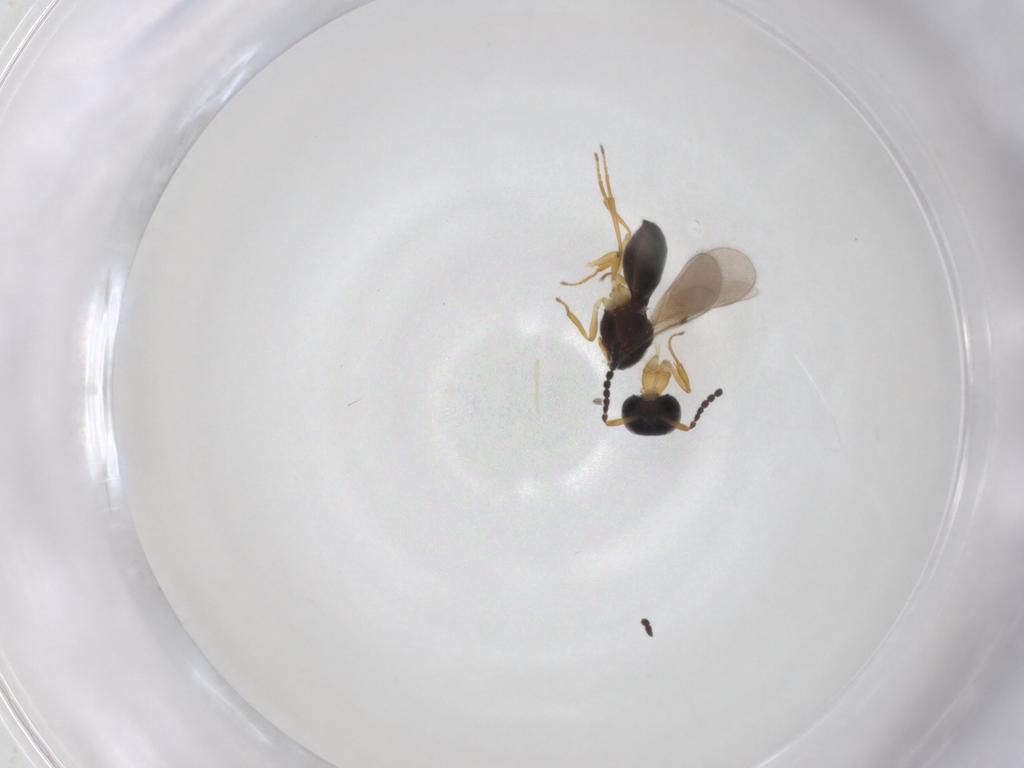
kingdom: Animalia
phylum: Arthropoda
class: Insecta
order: Hymenoptera
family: Scelionidae
